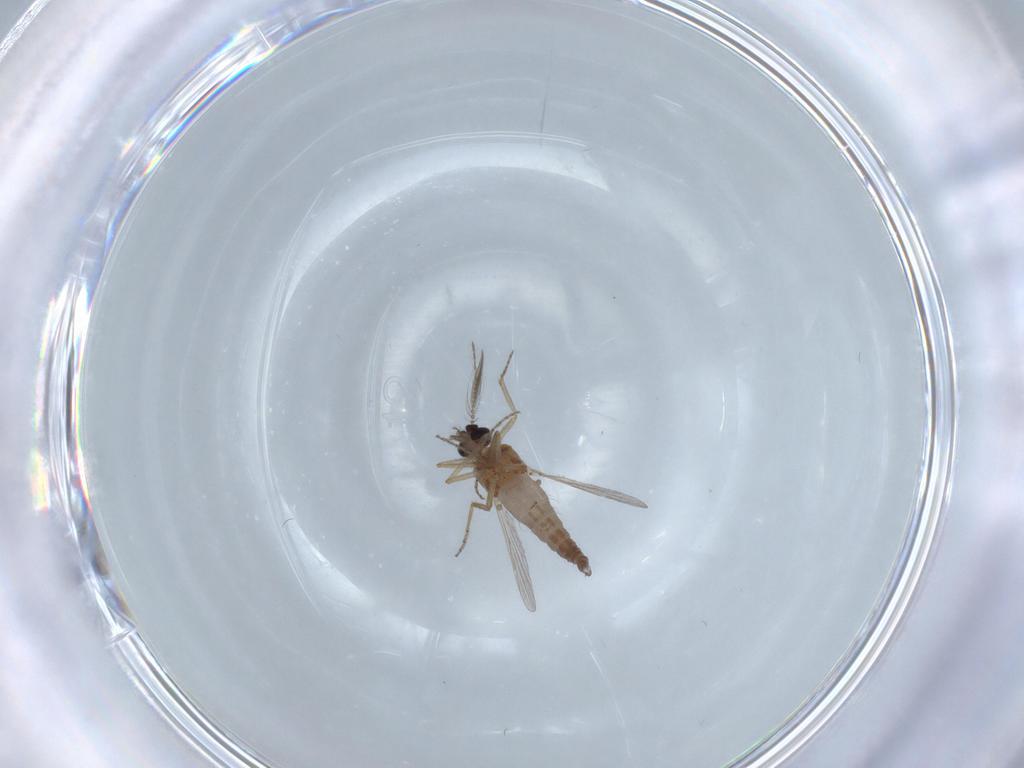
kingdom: Animalia
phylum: Arthropoda
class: Insecta
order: Diptera
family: Ceratopogonidae
